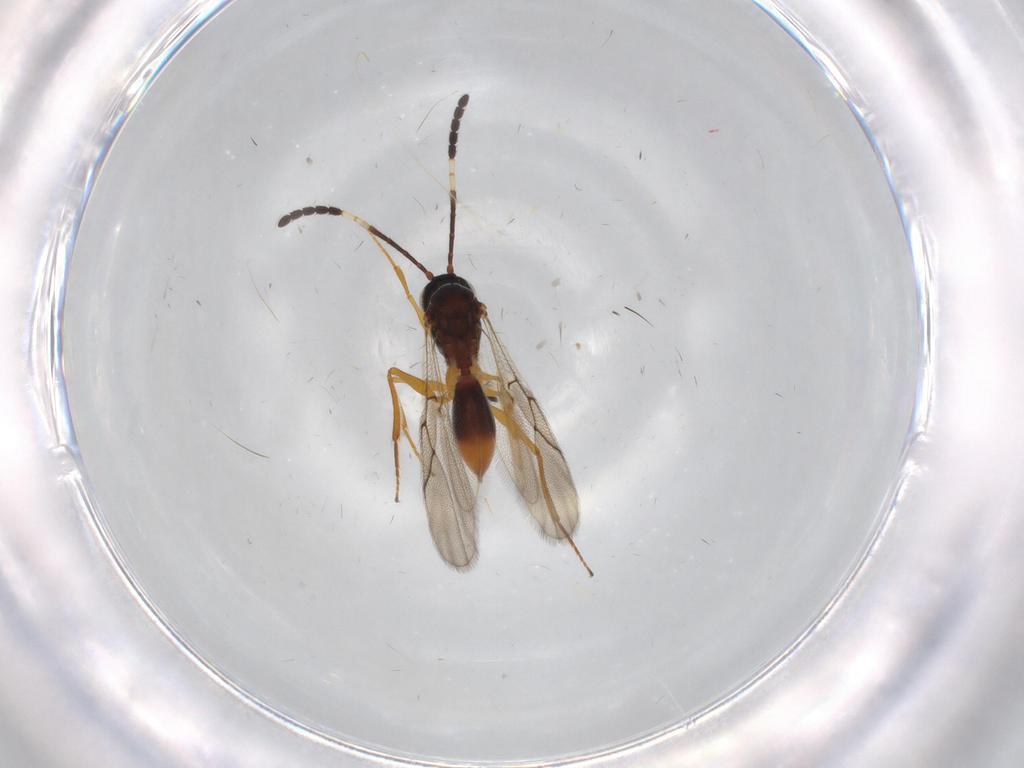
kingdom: Animalia
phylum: Arthropoda
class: Insecta
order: Hymenoptera
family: Figitidae
